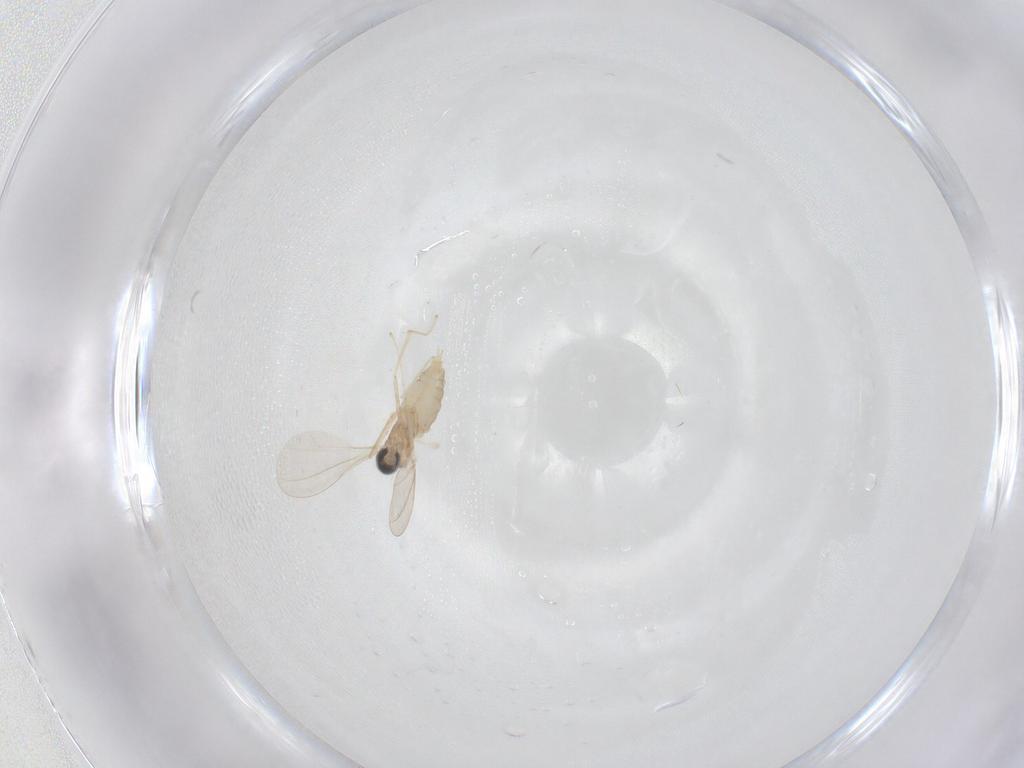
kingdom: Animalia
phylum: Arthropoda
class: Insecta
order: Diptera
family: Cecidomyiidae
